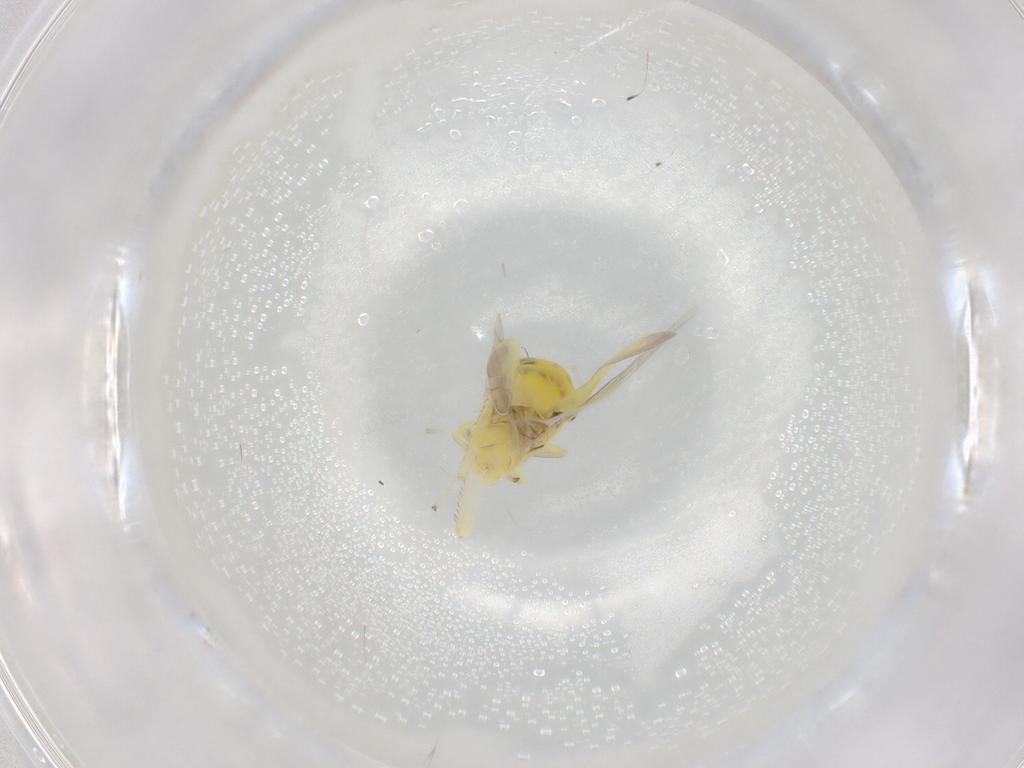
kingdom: Animalia
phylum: Arthropoda
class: Insecta
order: Hemiptera
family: Cicadellidae
